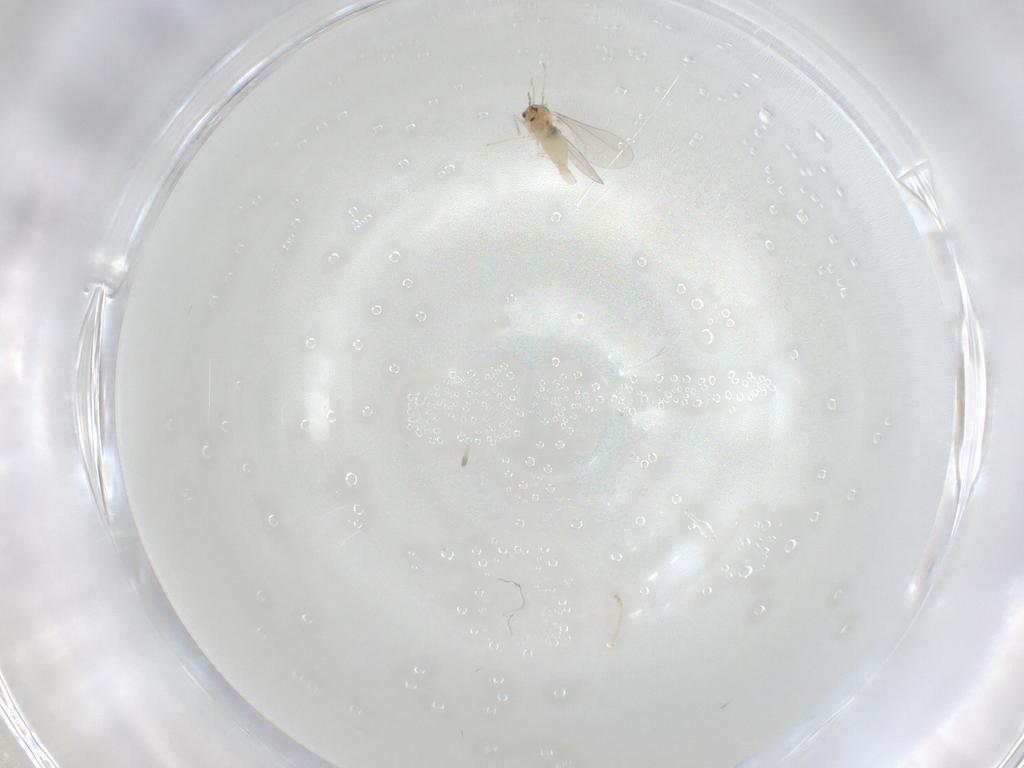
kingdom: Animalia
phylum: Arthropoda
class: Insecta
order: Diptera
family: Cecidomyiidae
